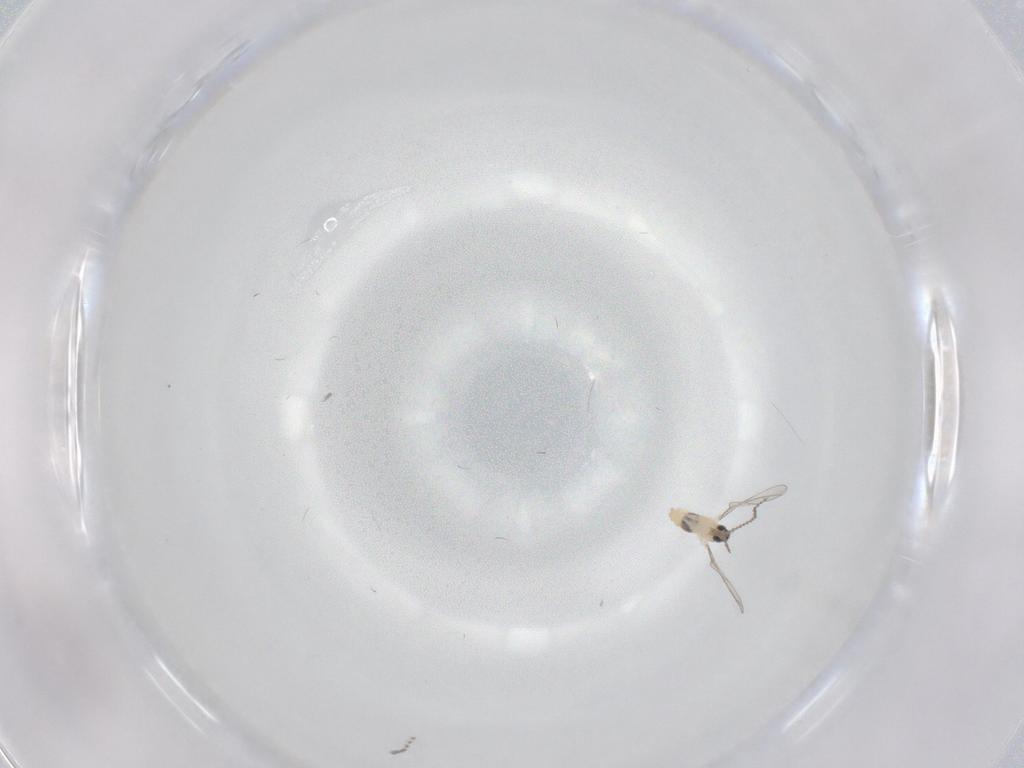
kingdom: Animalia
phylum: Arthropoda
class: Insecta
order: Diptera
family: Cecidomyiidae
